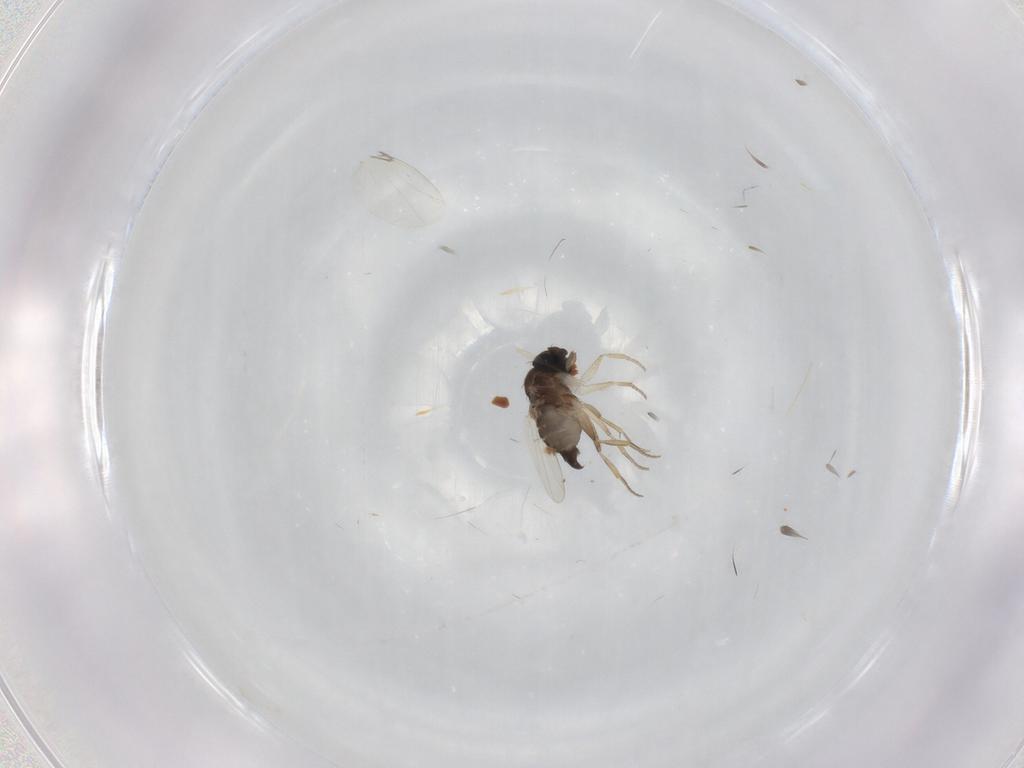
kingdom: Animalia
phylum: Arthropoda
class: Insecta
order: Diptera
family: Phoridae
